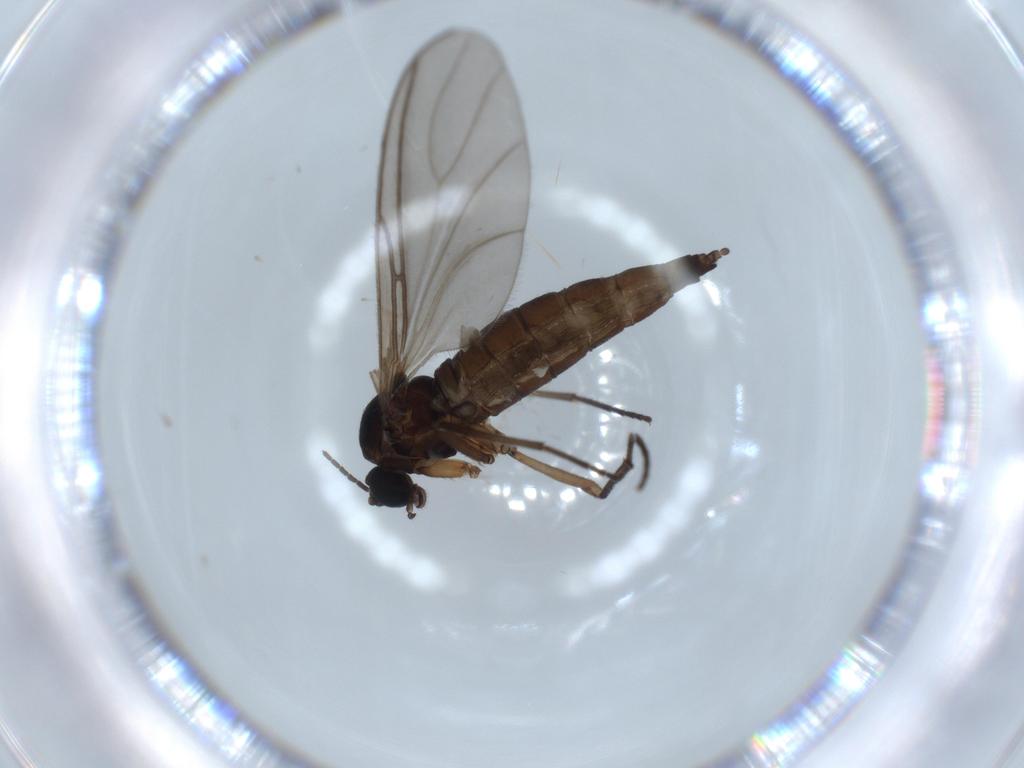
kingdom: Animalia
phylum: Arthropoda
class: Insecta
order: Diptera
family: Sciaridae
